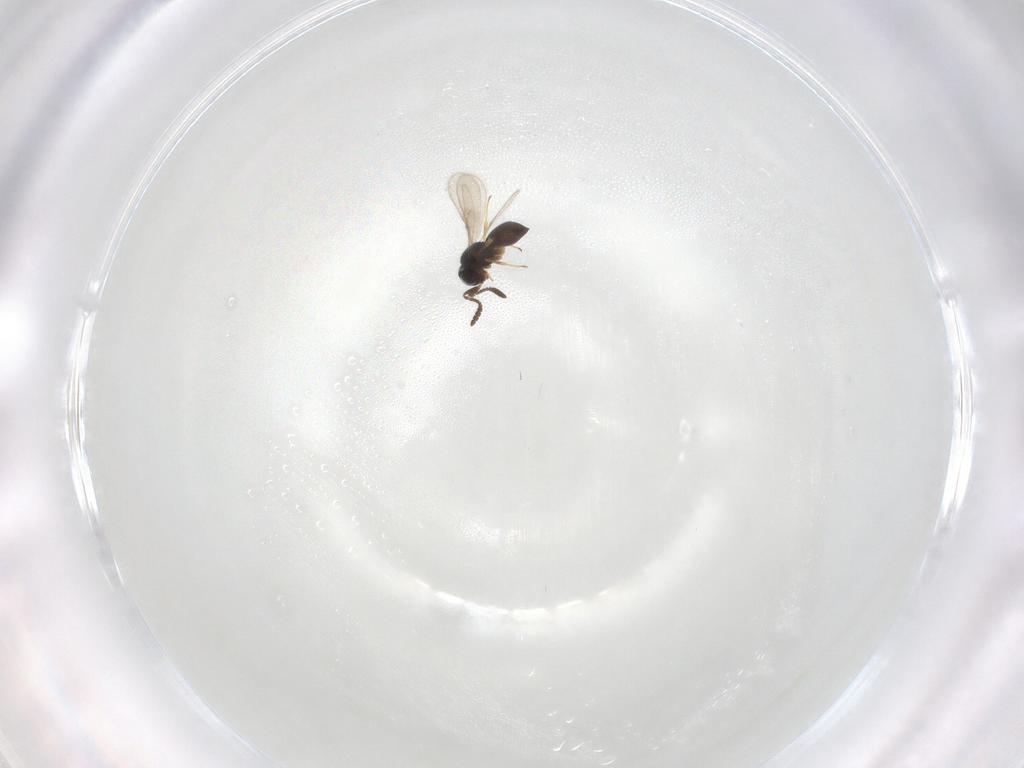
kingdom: Animalia
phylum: Arthropoda
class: Insecta
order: Hymenoptera
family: Scelionidae
